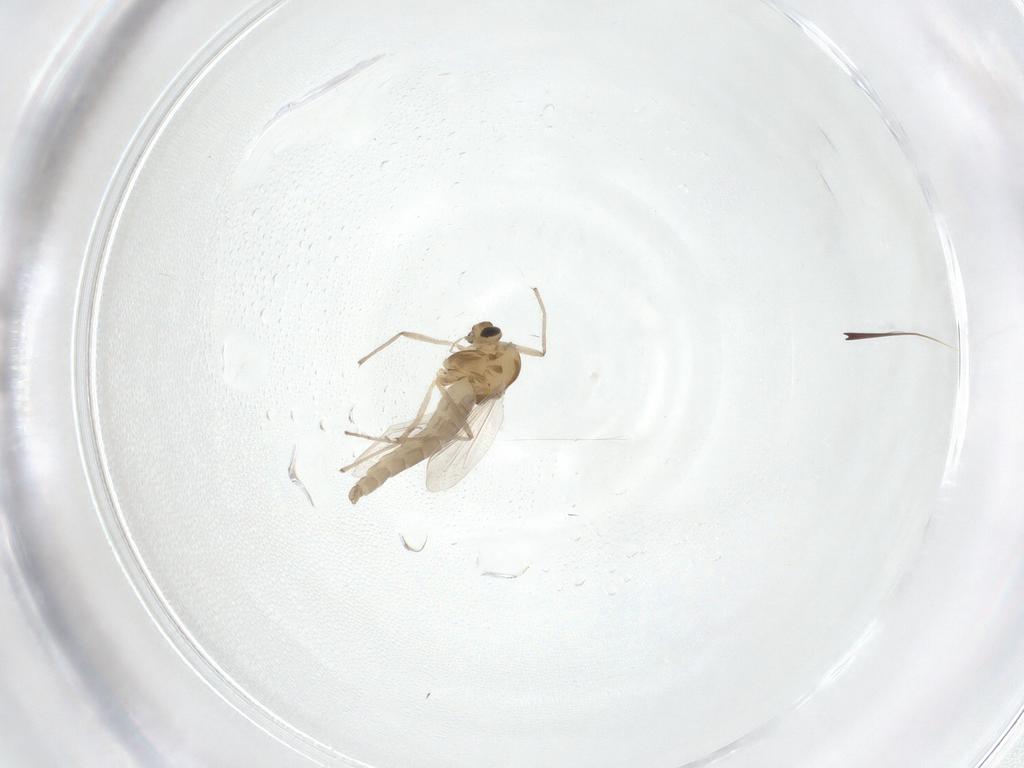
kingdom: Animalia
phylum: Arthropoda
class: Insecta
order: Diptera
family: Chironomidae
